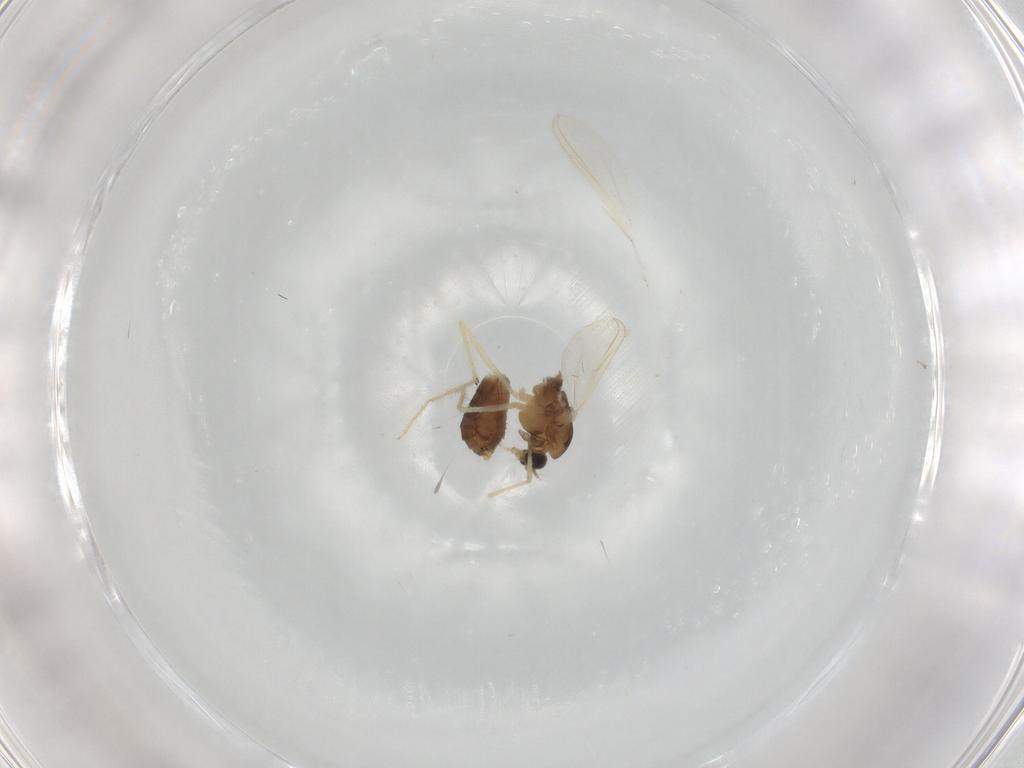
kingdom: Animalia
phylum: Arthropoda
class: Insecta
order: Diptera
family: Chironomidae
